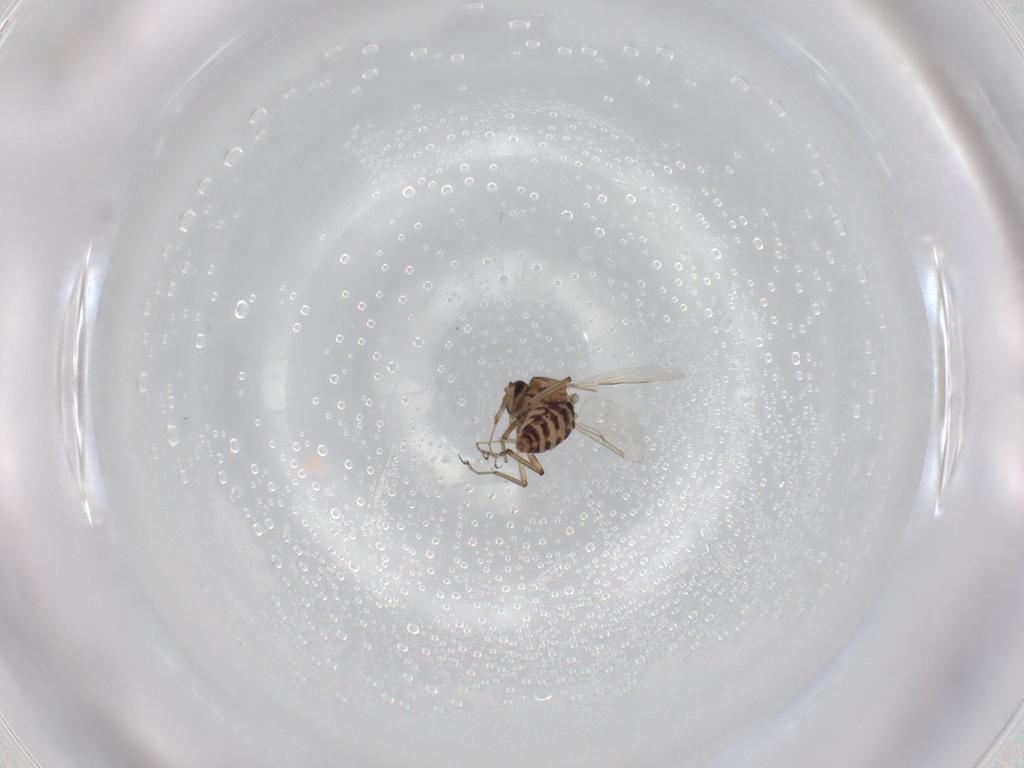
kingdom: Animalia
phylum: Arthropoda
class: Insecta
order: Diptera
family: Ceratopogonidae
